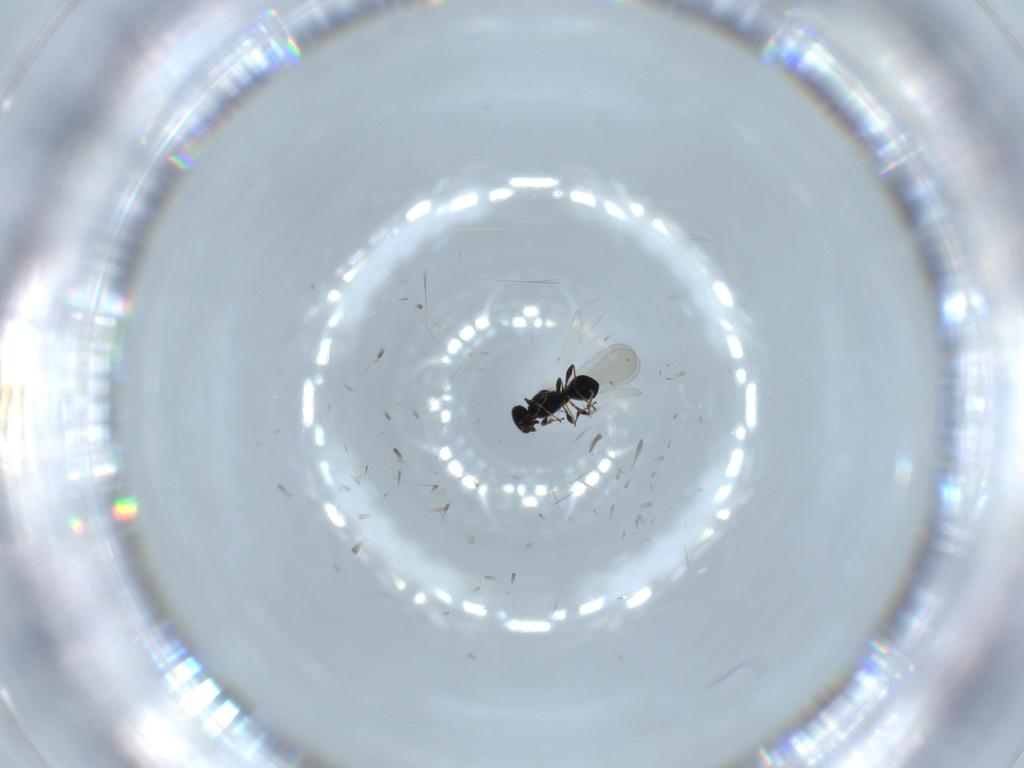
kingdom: Animalia
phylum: Arthropoda
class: Insecta
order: Hymenoptera
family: Platygastridae
